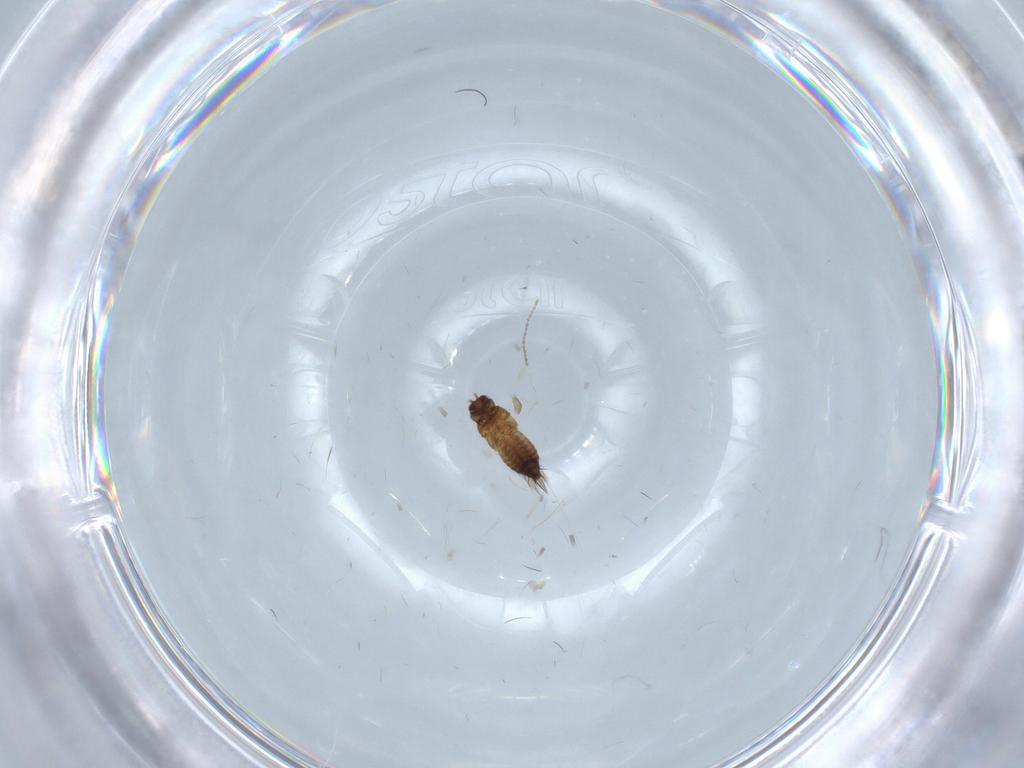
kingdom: Animalia
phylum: Arthropoda
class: Insecta
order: Thysanoptera
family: Thripidae
